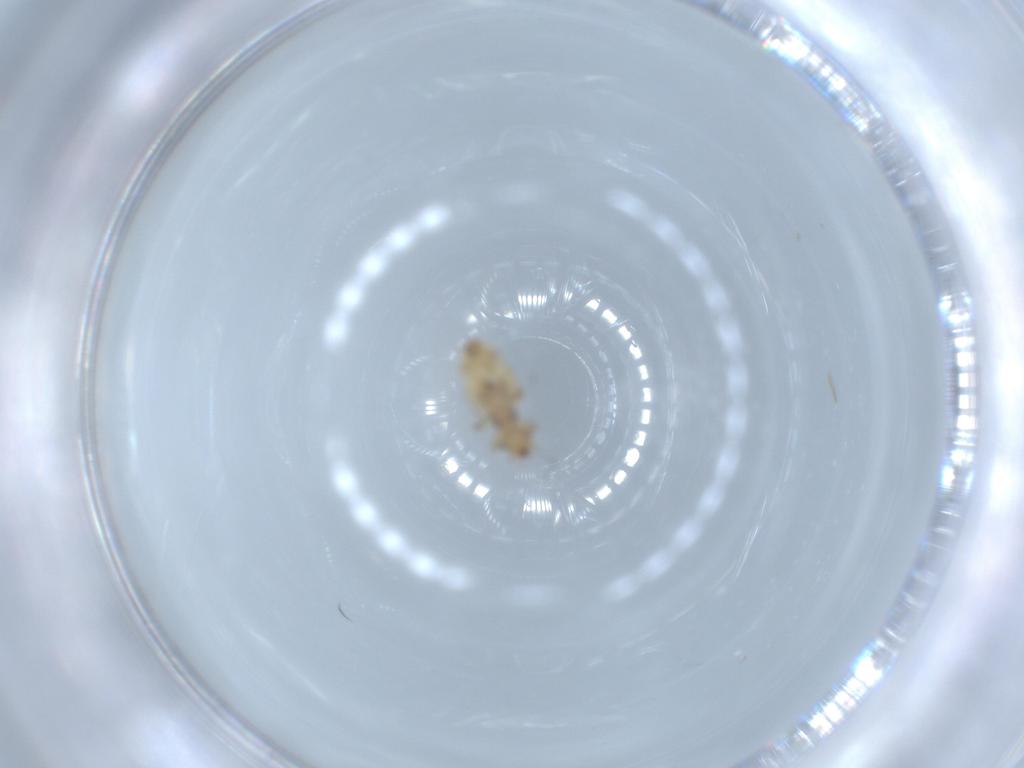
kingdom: Animalia
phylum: Arthropoda
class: Insecta
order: Psocodea
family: Liposcelididae
